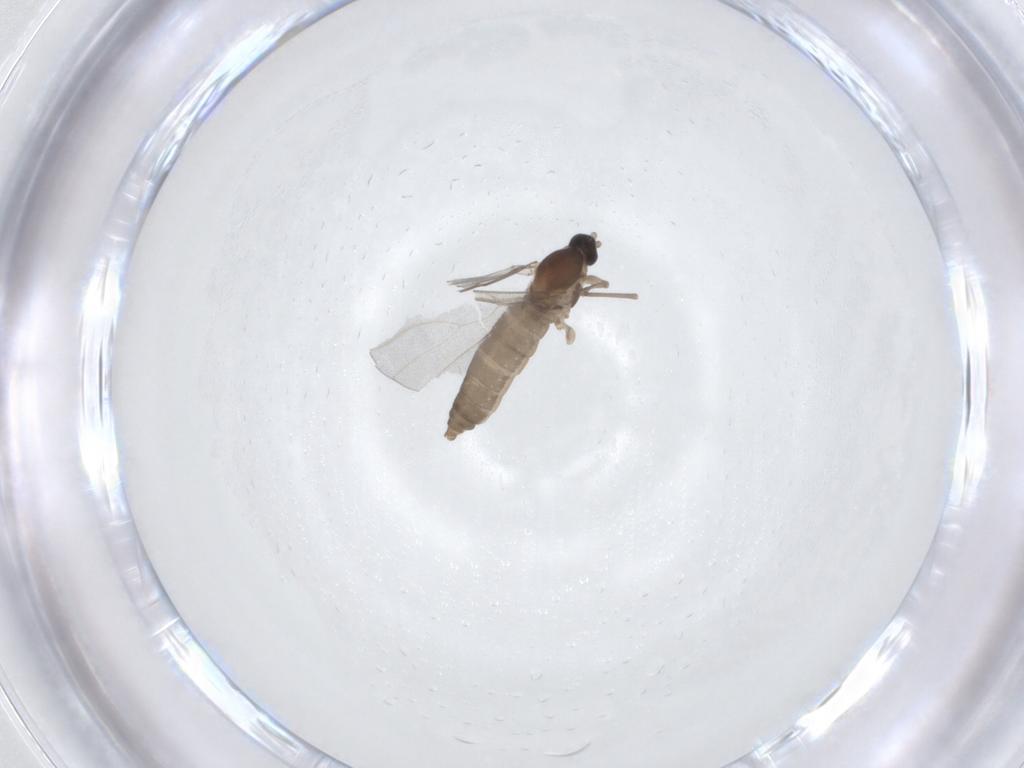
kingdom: Animalia
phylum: Arthropoda
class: Insecta
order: Diptera
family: Cecidomyiidae
